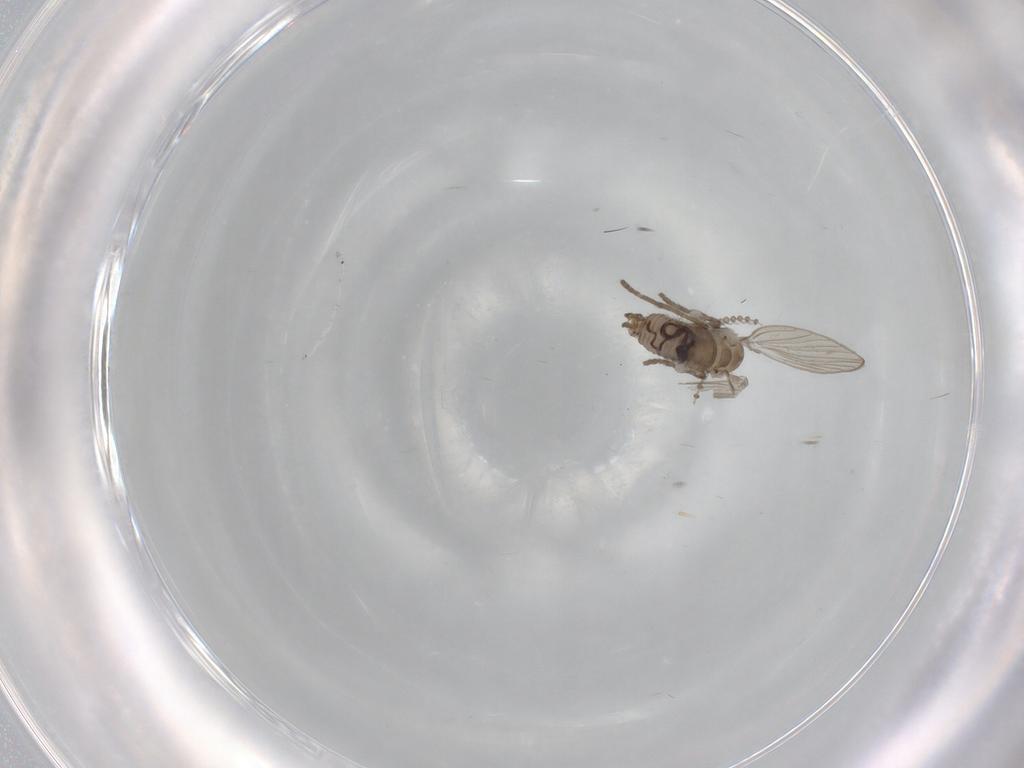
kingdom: Animalia
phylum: Arthropoda
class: Insecta
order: Diptera
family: Psychodidae
